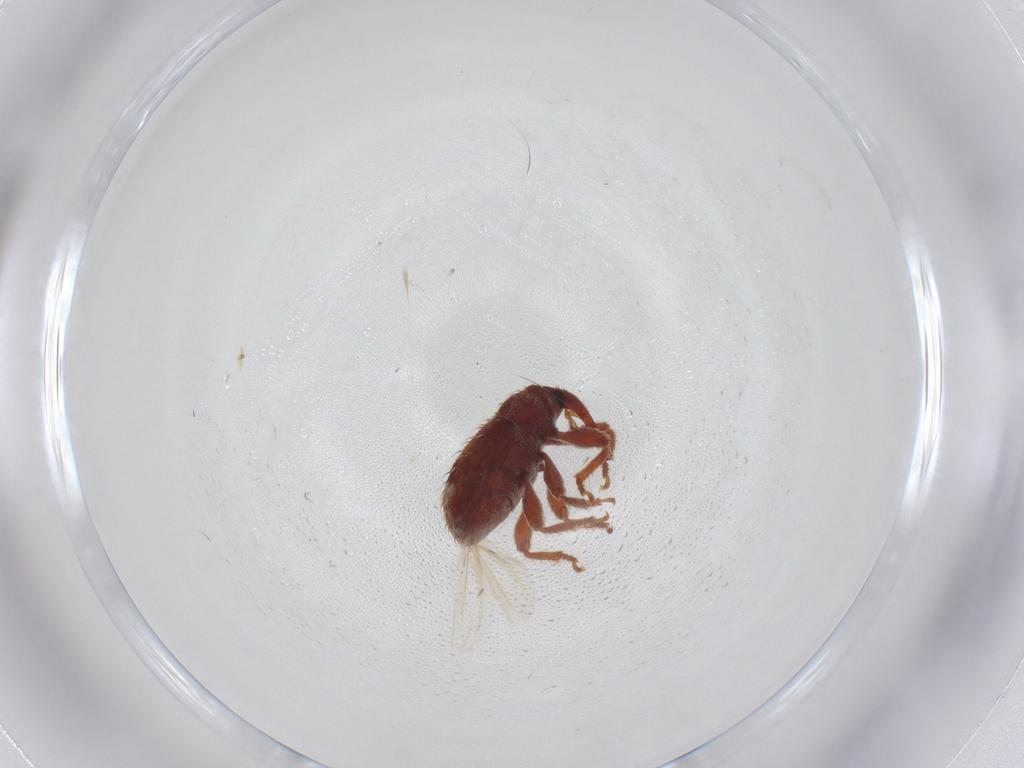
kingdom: Animalia
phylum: Arthropoda
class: Insecta
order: Coleoptera
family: Curculionidae
